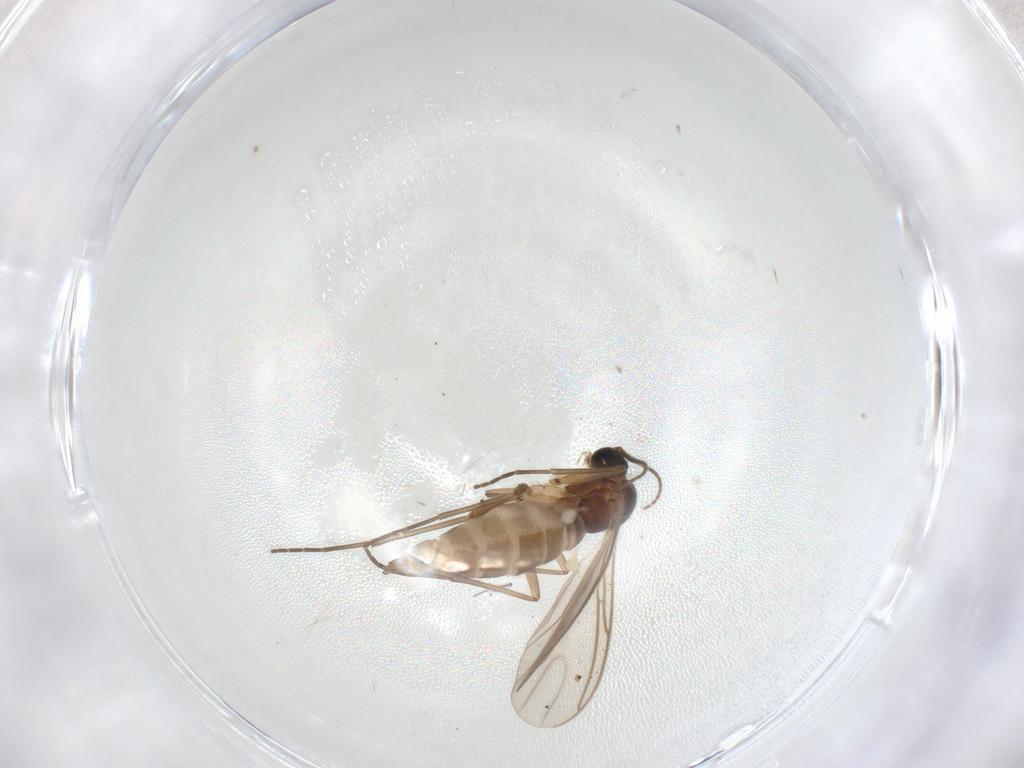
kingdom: Animalia
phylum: Arthropoda
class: Insecta
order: Diptera
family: Sciaridae
